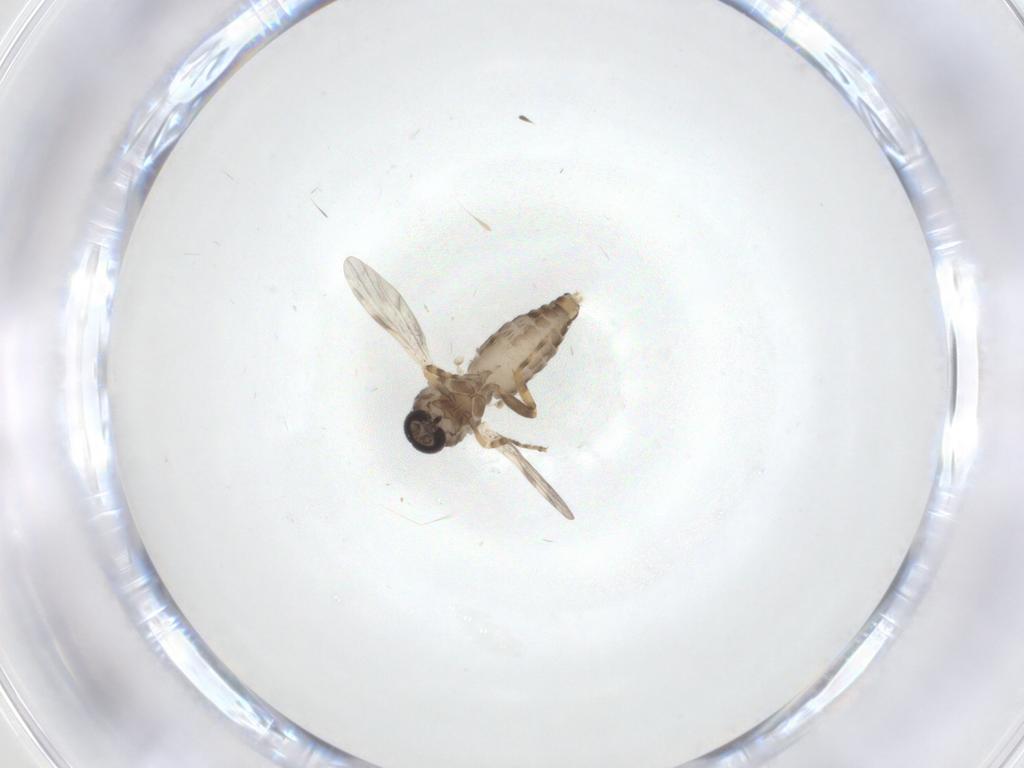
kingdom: Animalia
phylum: Arthropoda
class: Insecta
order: Diptera
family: Ceratopogonidae
